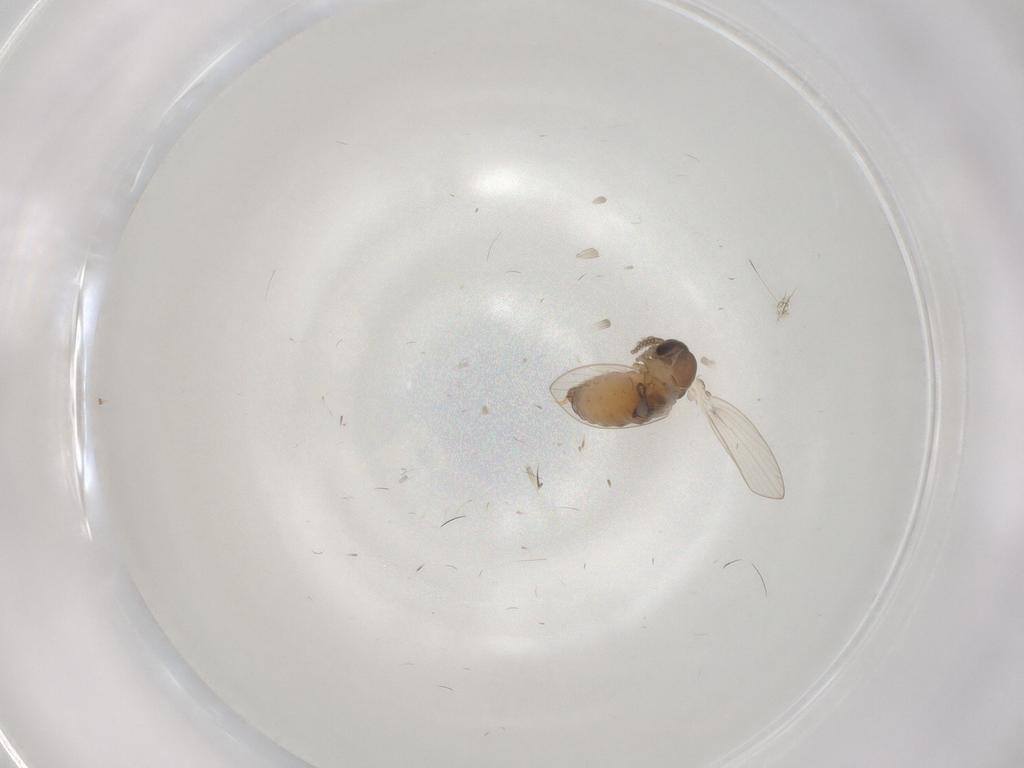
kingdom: Animalia
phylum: Arthropoda
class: Insecta
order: Diptera
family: Psychodidae
